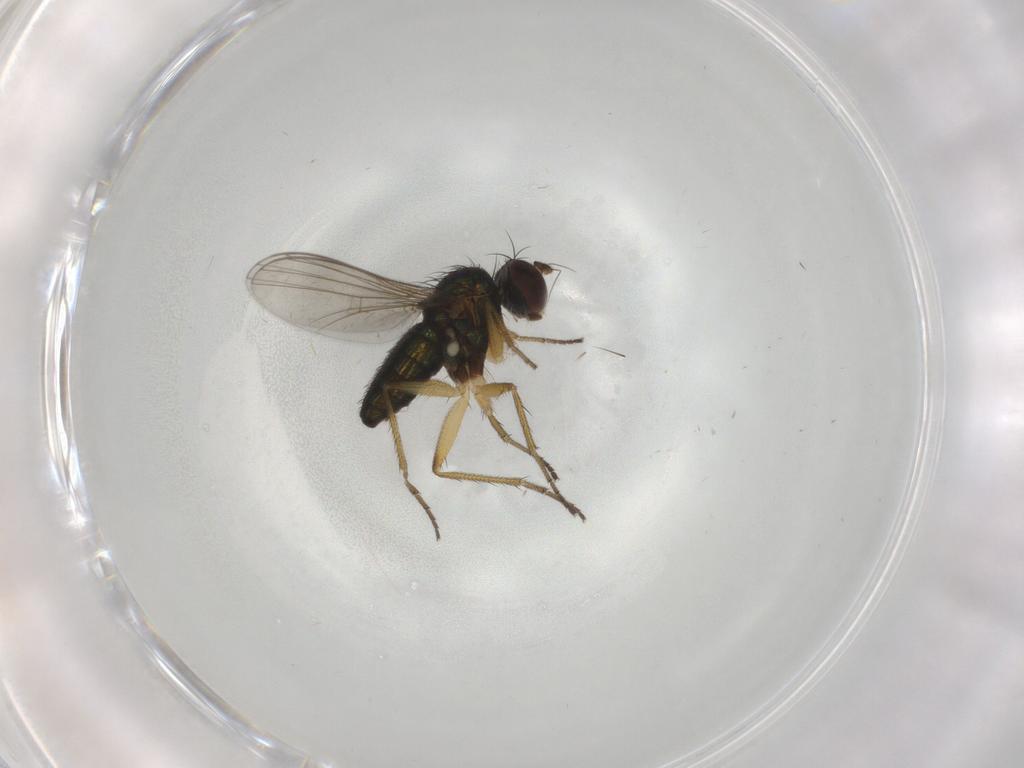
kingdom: Animalia
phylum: Arthropoda
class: Insecta
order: Diptera
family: Dolichopodidae
